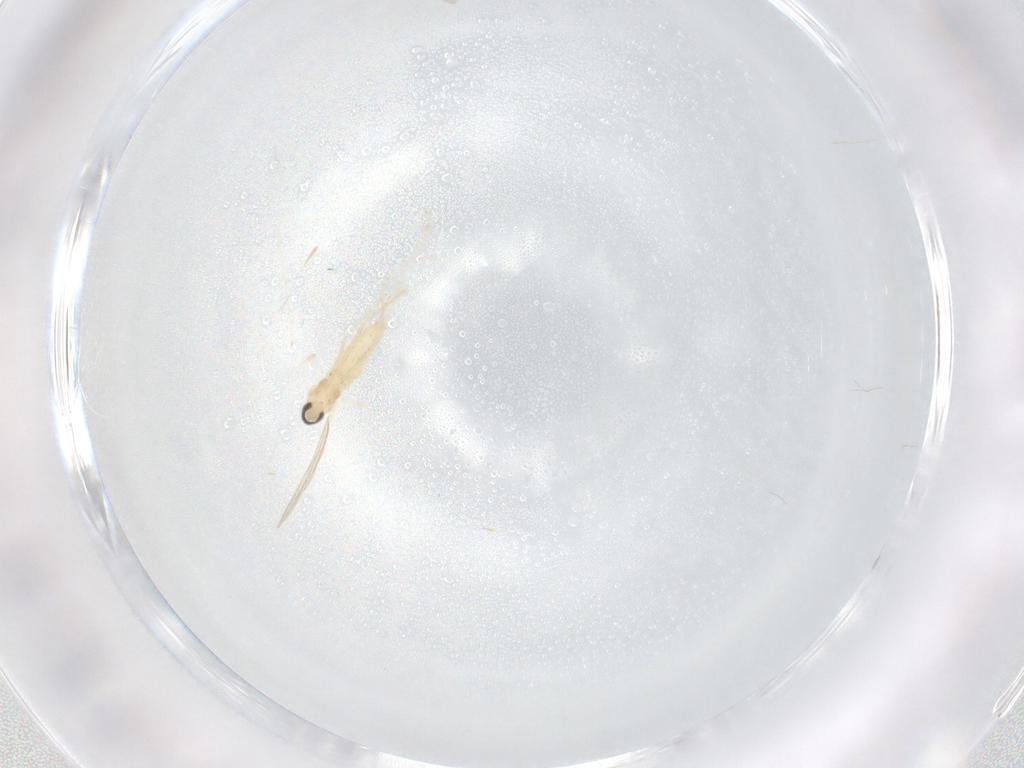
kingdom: Animalia
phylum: Arthropoda
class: Insecta
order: Diptera
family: Cecidomyiidae
